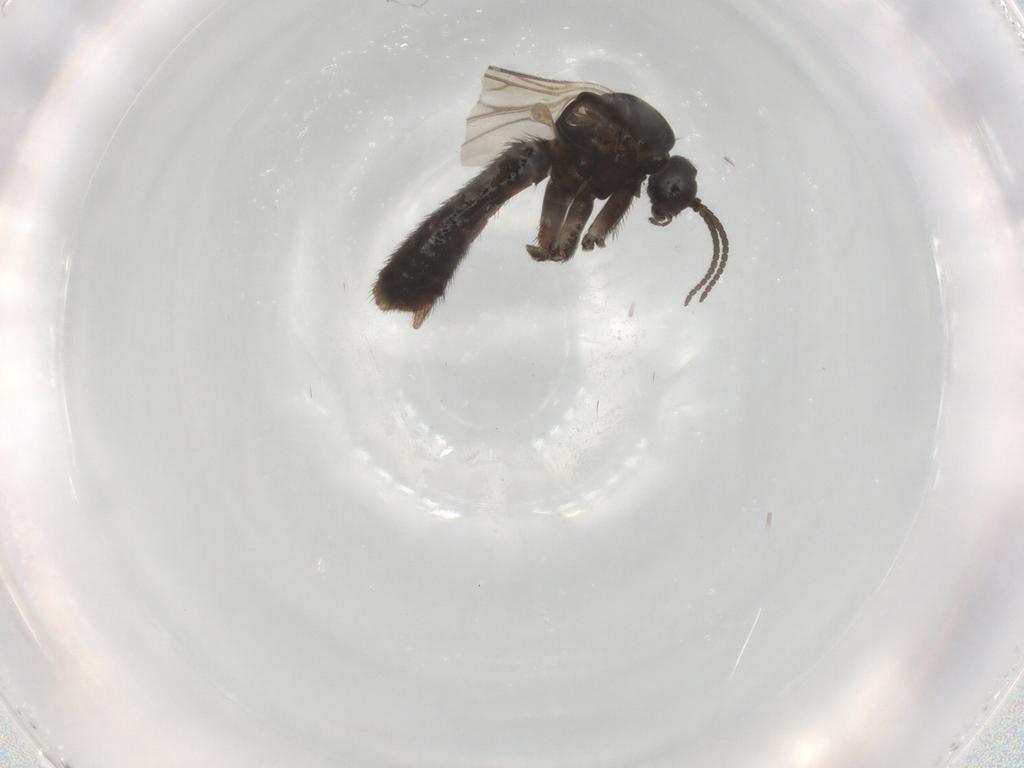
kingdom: Animalia
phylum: Arthropoda
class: Insecta
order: Diptera
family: Keroplatidae
